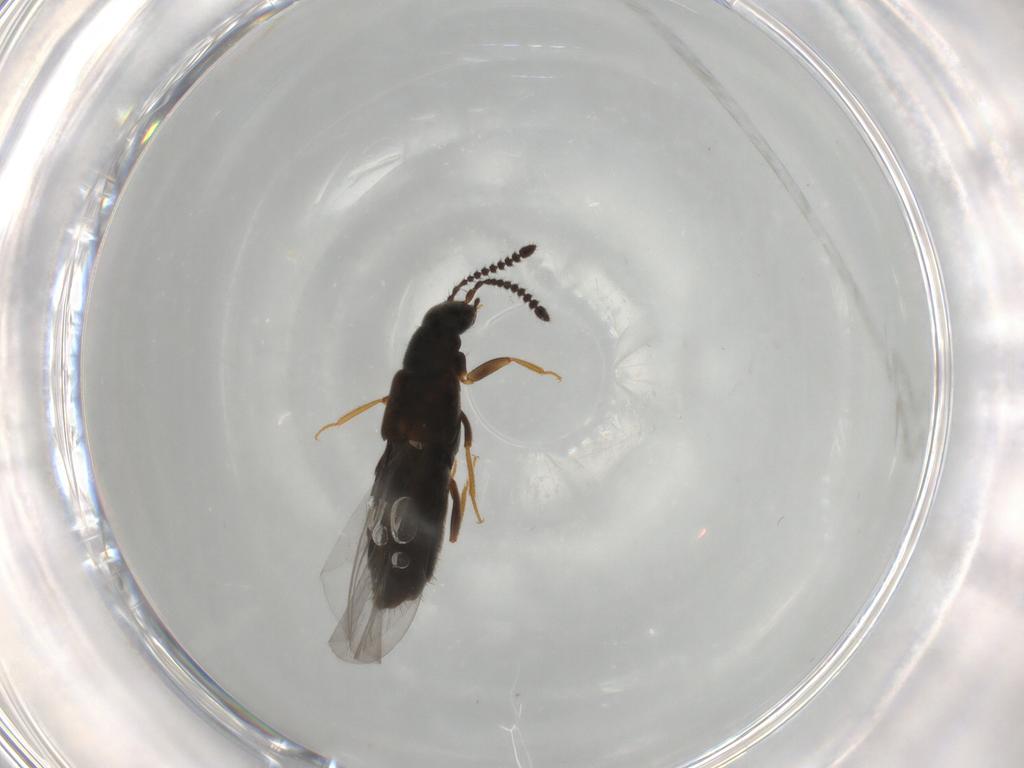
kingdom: Animalia
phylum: Arthropoda
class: Insecta
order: Coleoptera
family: Staphylinidae
